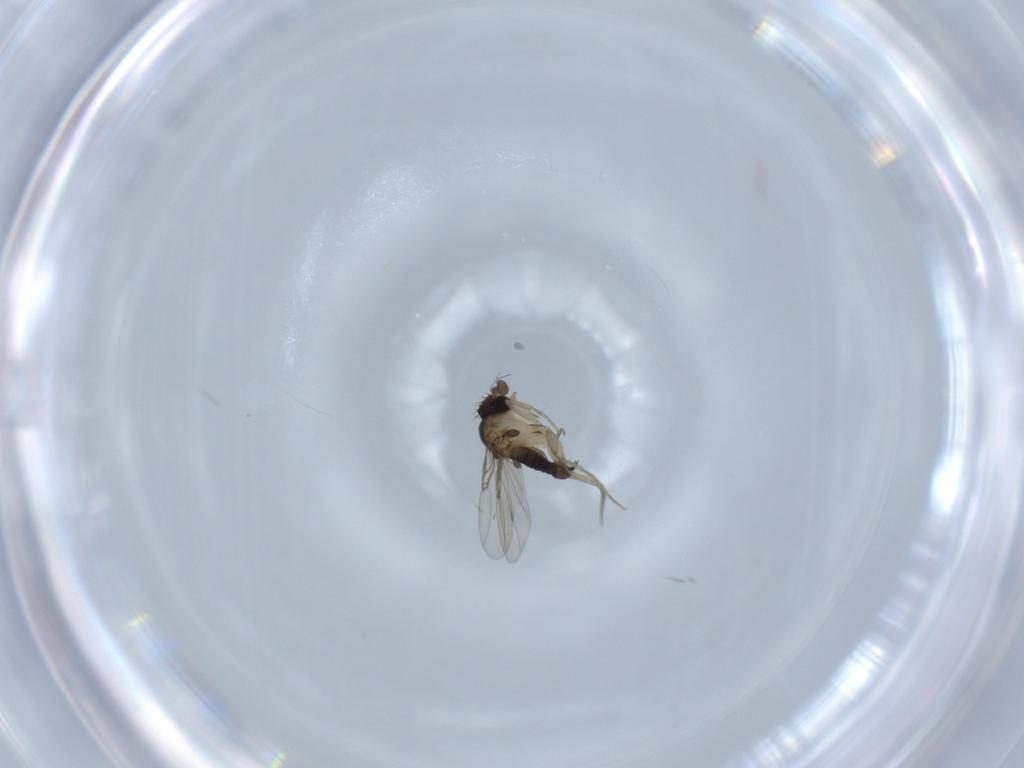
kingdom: Animalia
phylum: Arthropoda
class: Insecta
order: Diptera
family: Phoridae
